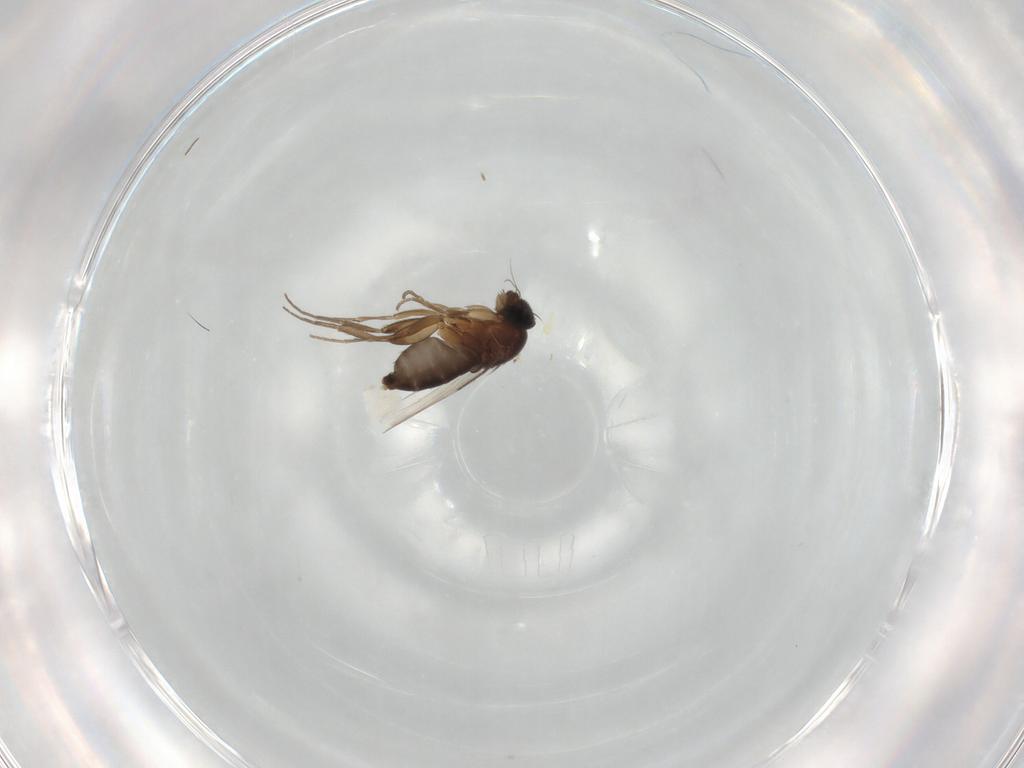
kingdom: Animalia
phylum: Arthropoda
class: Insecta
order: Diptera
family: Phoridae
